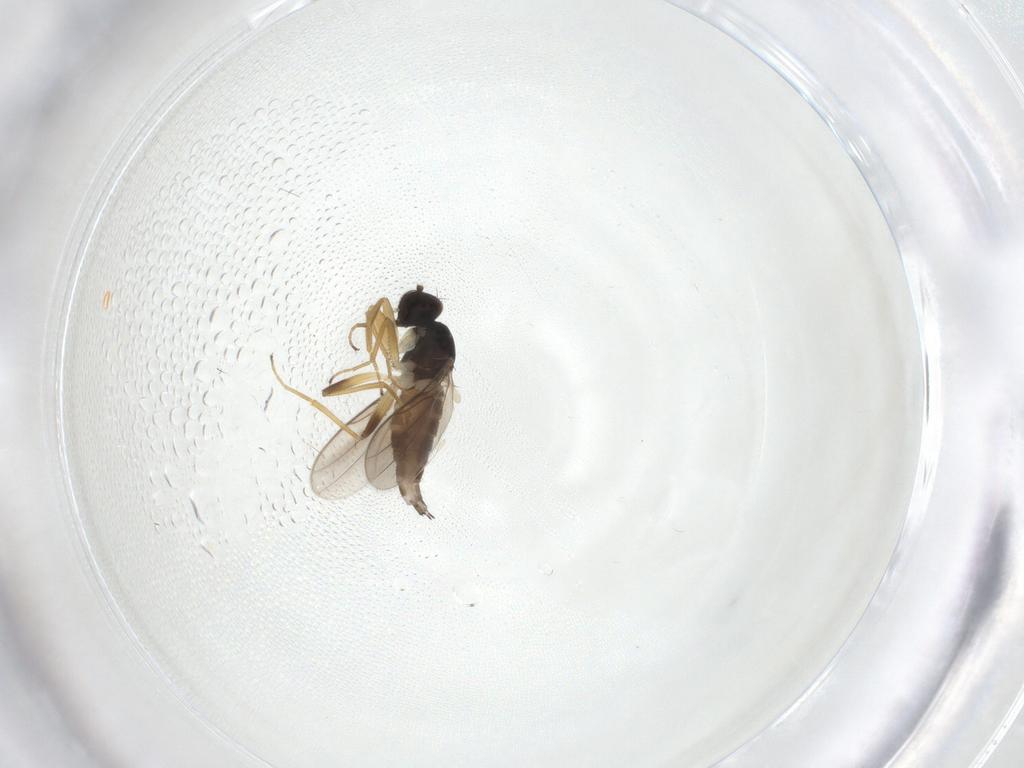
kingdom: Animalia
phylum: Arthropoda
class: Insecta
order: Diptera
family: Hybotidae
